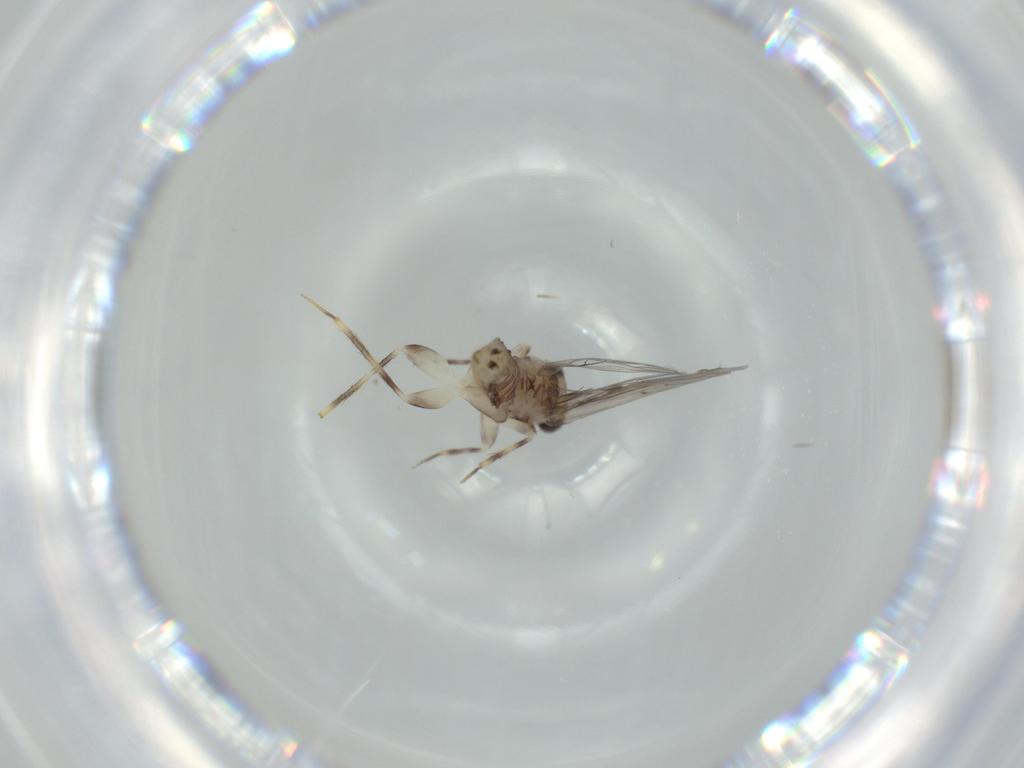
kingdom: Animalia
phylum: Arthropoda
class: Insecta
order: Psocodea
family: Lepidopsocidae
